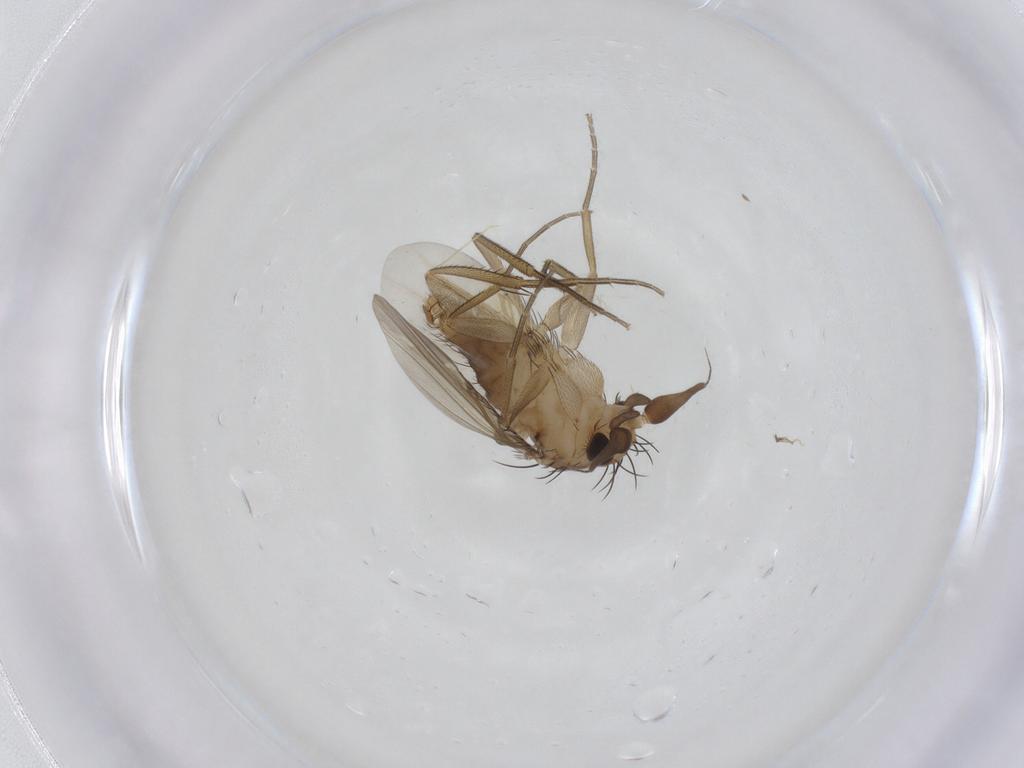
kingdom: Animalia
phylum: Arthropoda
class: Insecta
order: Diptera
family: Phoridae
